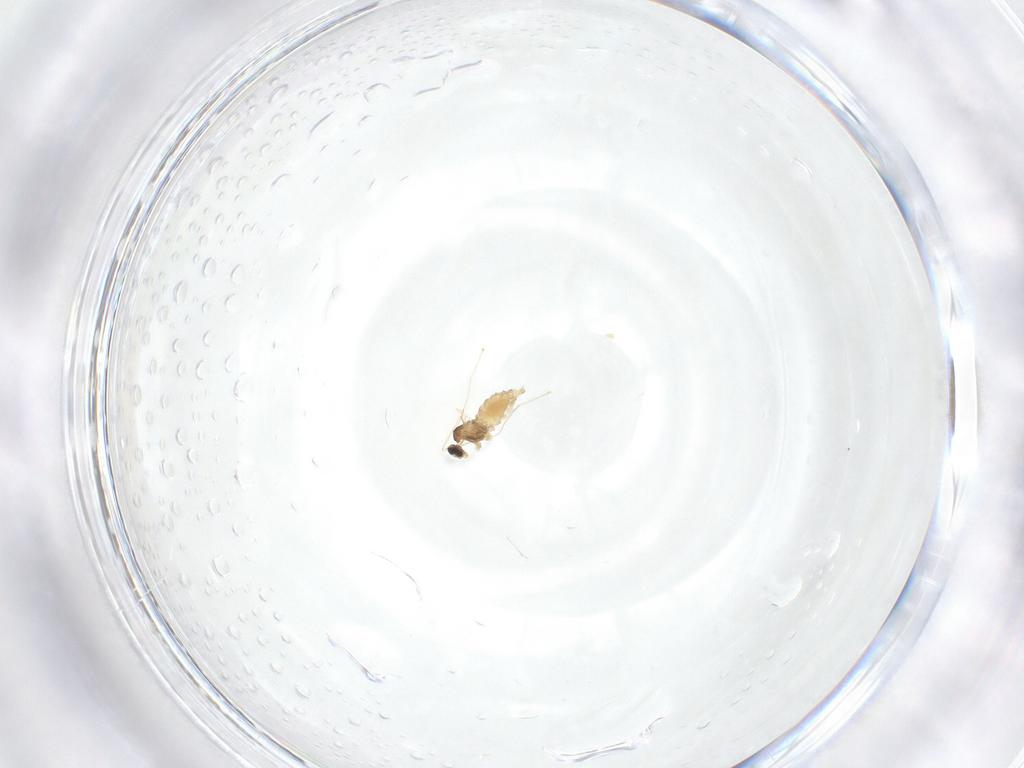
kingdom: Animalia
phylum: Arthropoda
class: Insecta
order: Diptera
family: Cecidomyiidae
